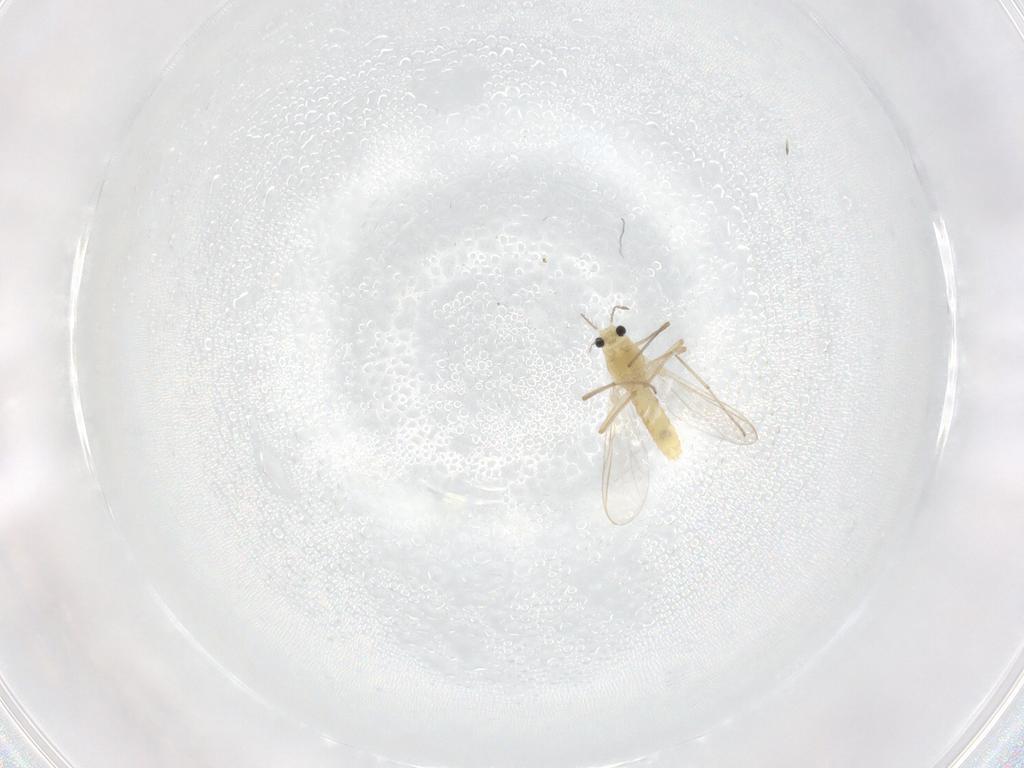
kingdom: Animalia
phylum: Arthropoda
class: Insecta
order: Diptera
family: Chironomidae
